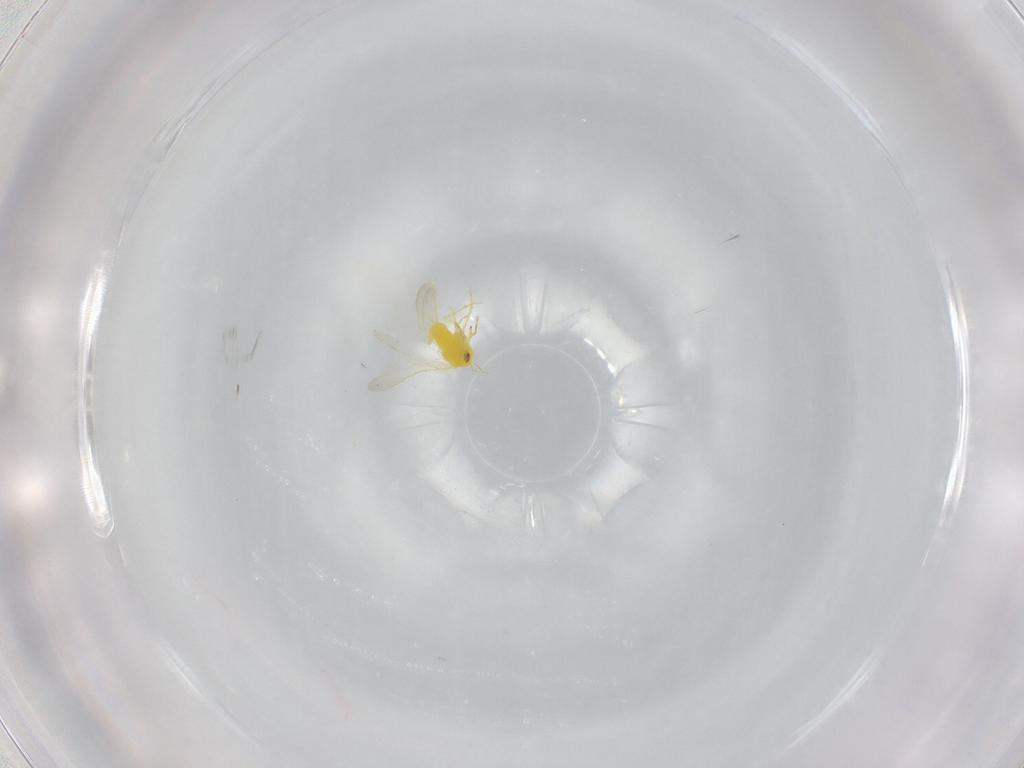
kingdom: Animalia
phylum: Arthropoda
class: Insecta
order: Hemiptera
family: Aleyrodidae
